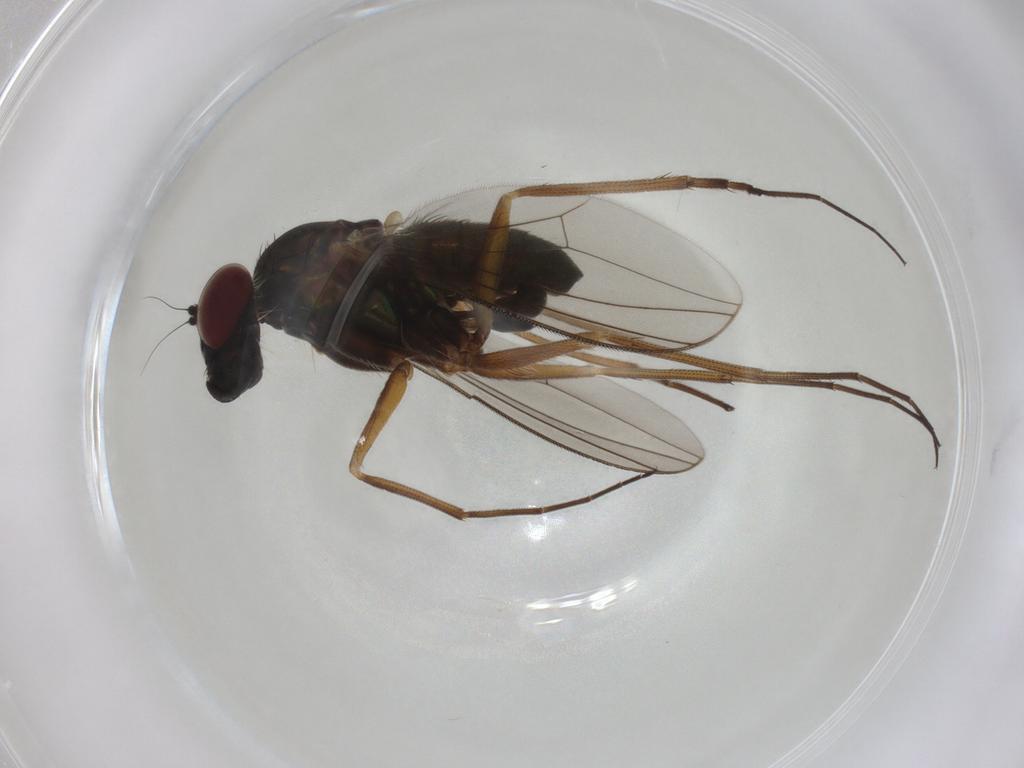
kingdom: Animalia
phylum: Arthropoda
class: Insecta
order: Diptera
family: Dolichopodidae
